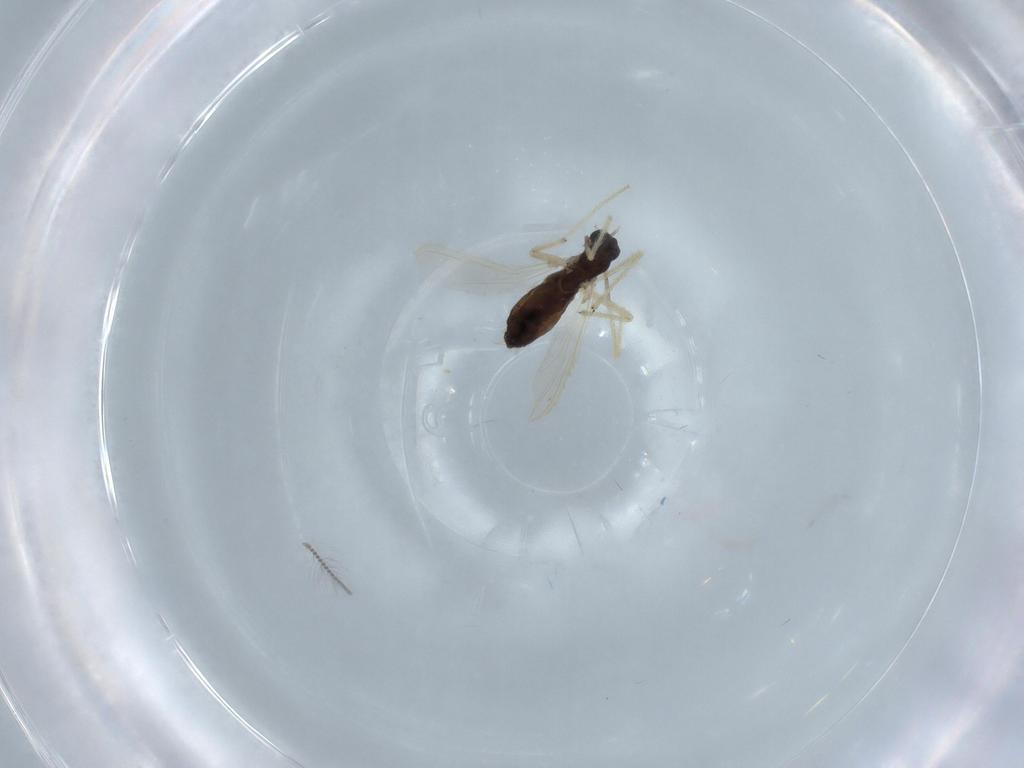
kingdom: Animalia
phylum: Arthropoda
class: Insecta
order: Diptera
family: Chironomidae
